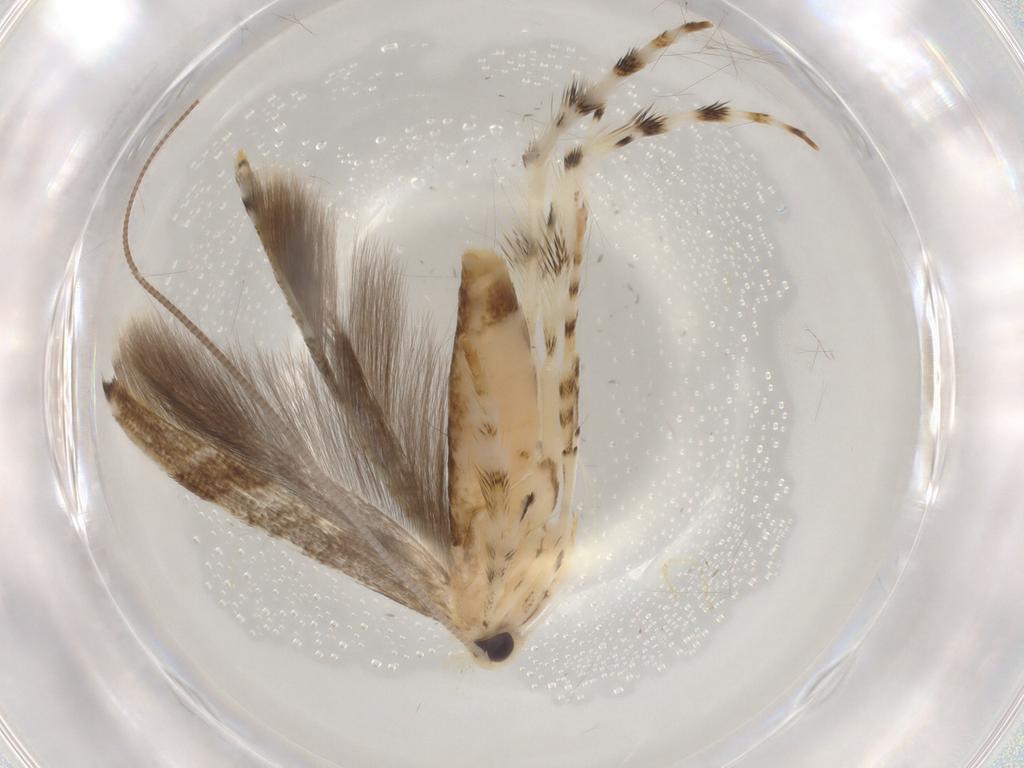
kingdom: Animalia
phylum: Arthropoda
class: Insecta
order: Lepidoptera
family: Gracillariidae
